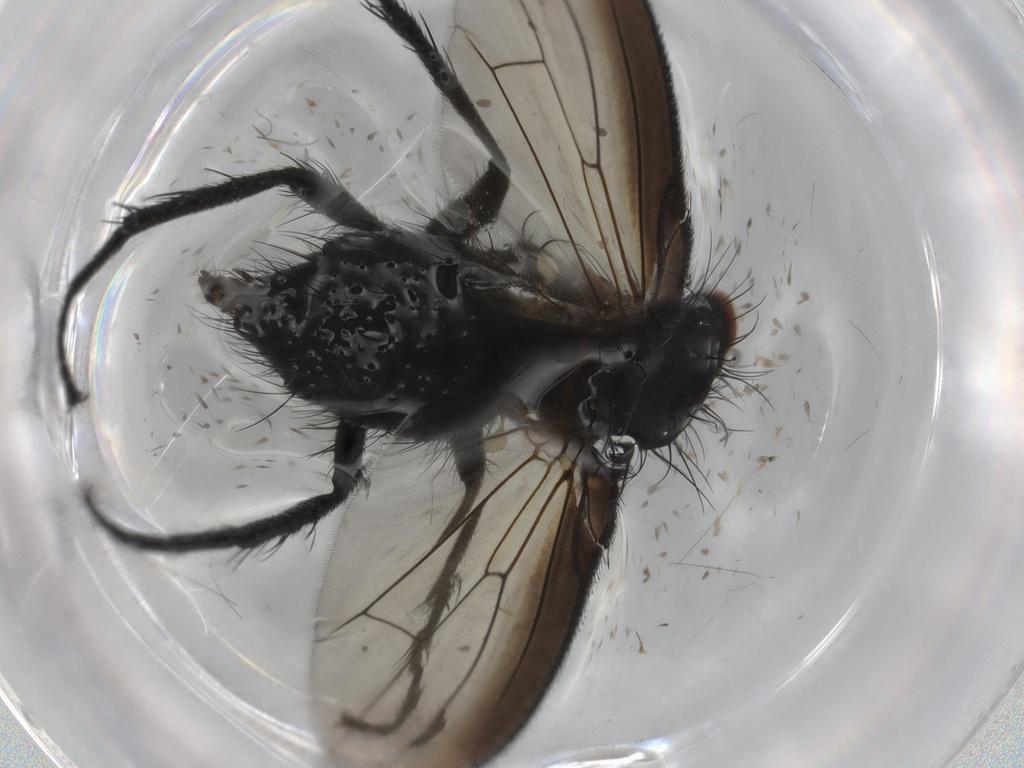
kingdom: Animalia
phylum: Arthropoda
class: Insecta
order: Diptera
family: Anthomyiidae
